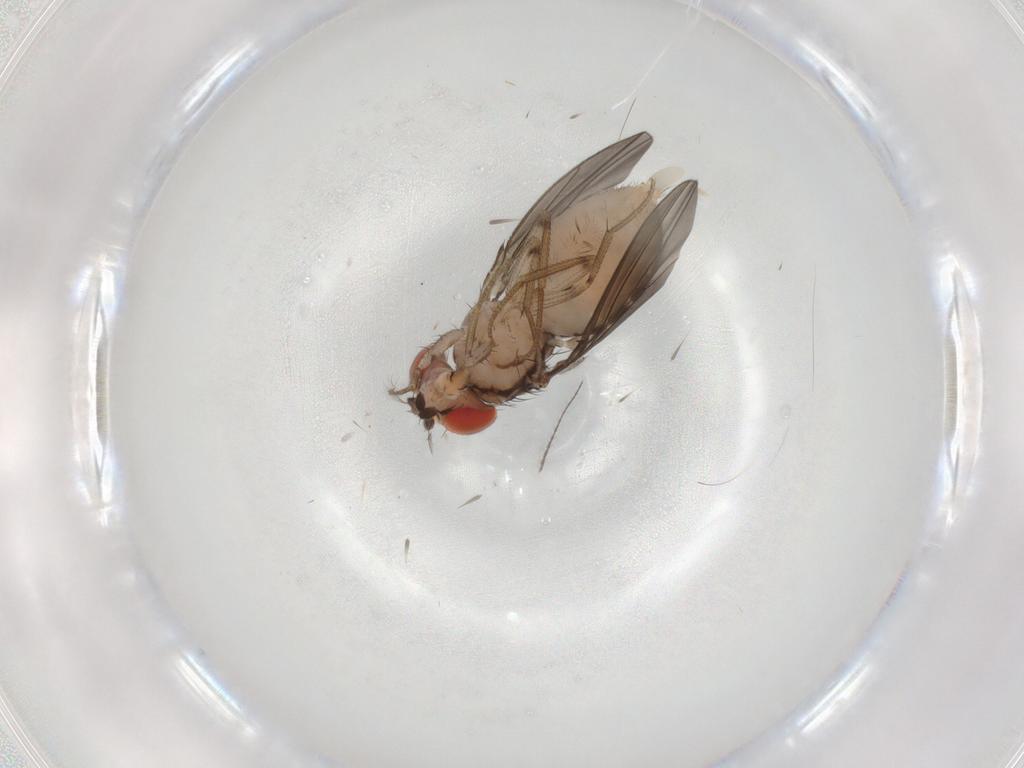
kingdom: Animalia
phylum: Arthropoda
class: Insecta
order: Diptera
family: Drosophilidae
